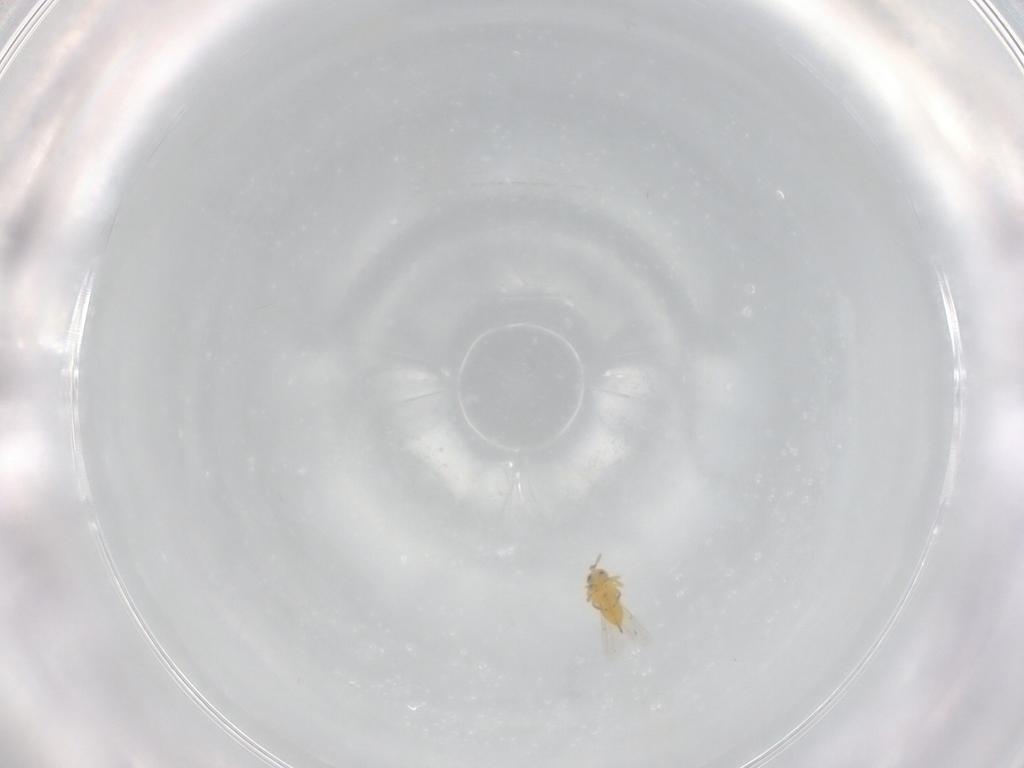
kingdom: Animalia
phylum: Arthropoda
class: Insecta
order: Hymenoptera
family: Aphelinidae
